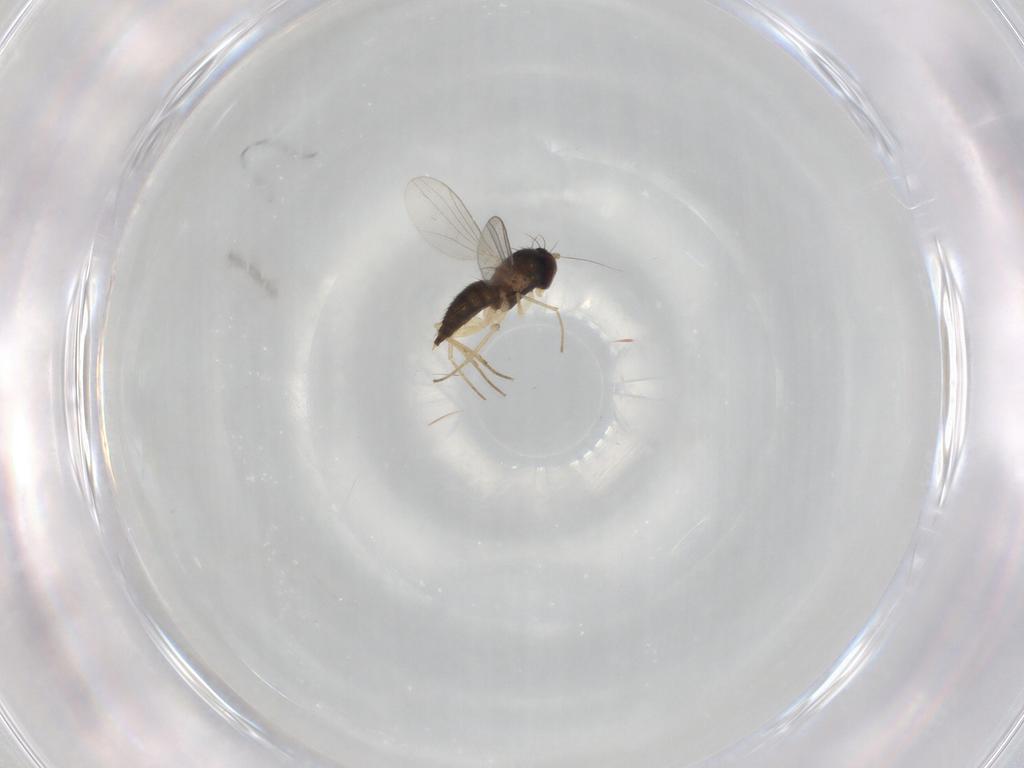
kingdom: Animalia
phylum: Arthropoda
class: Insecta
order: Diptera
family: Dolichopodidae
